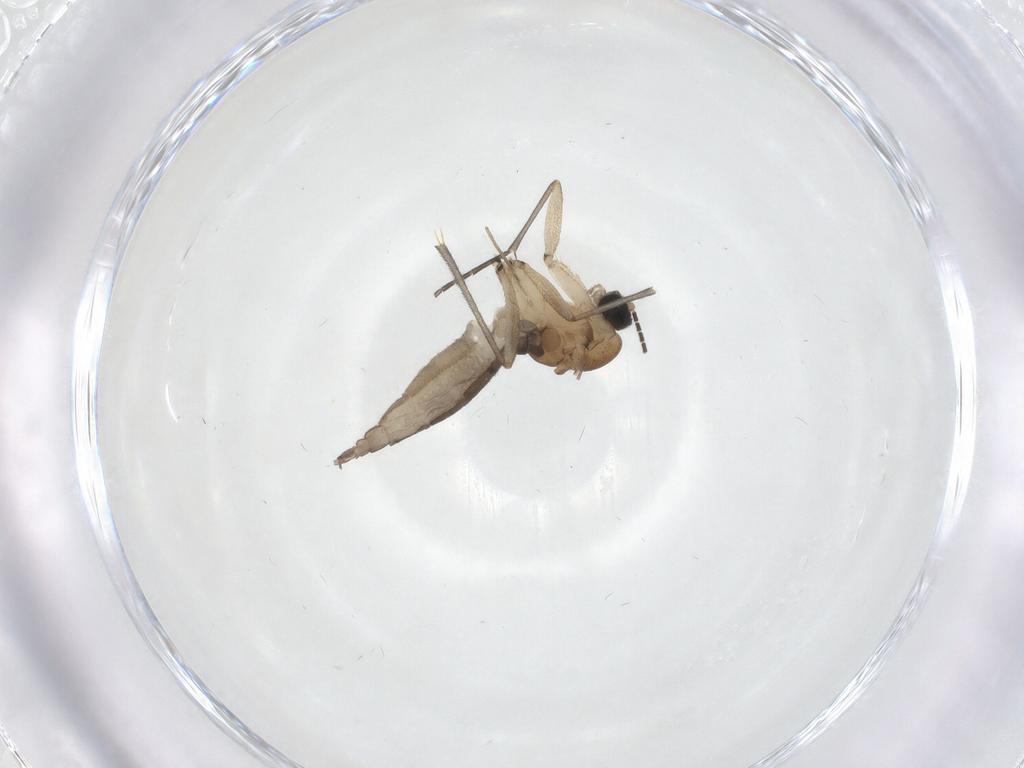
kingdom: Animalia
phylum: Arthropoda
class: Insecta
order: Diptera
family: Sciaridae
